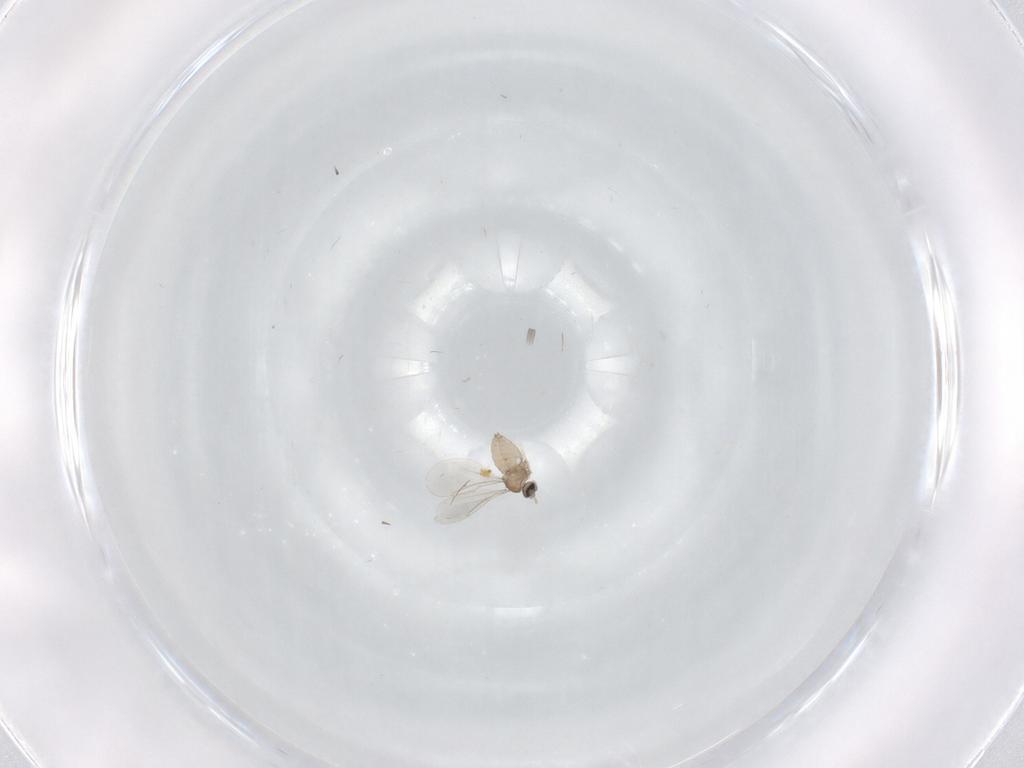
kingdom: Animalia
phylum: Arthropoda
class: Insecta
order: Diptera
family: Cecidomyiidae
